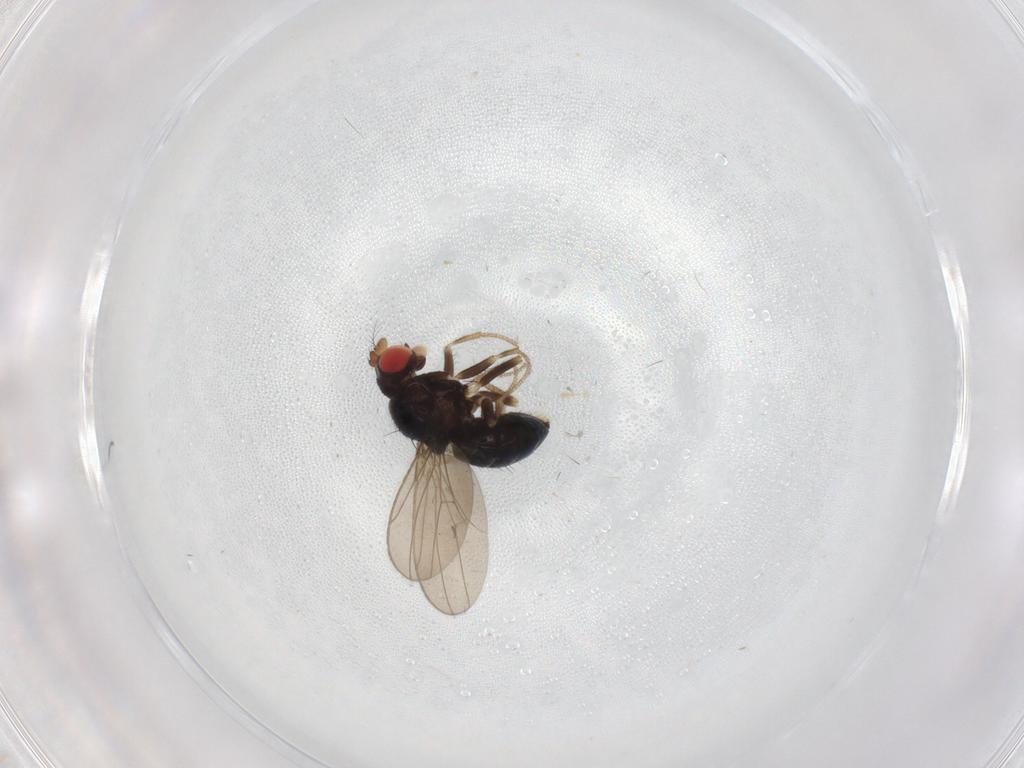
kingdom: Animalia
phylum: Arthropoda
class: Insecta
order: Diptera
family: Drosophilidae
